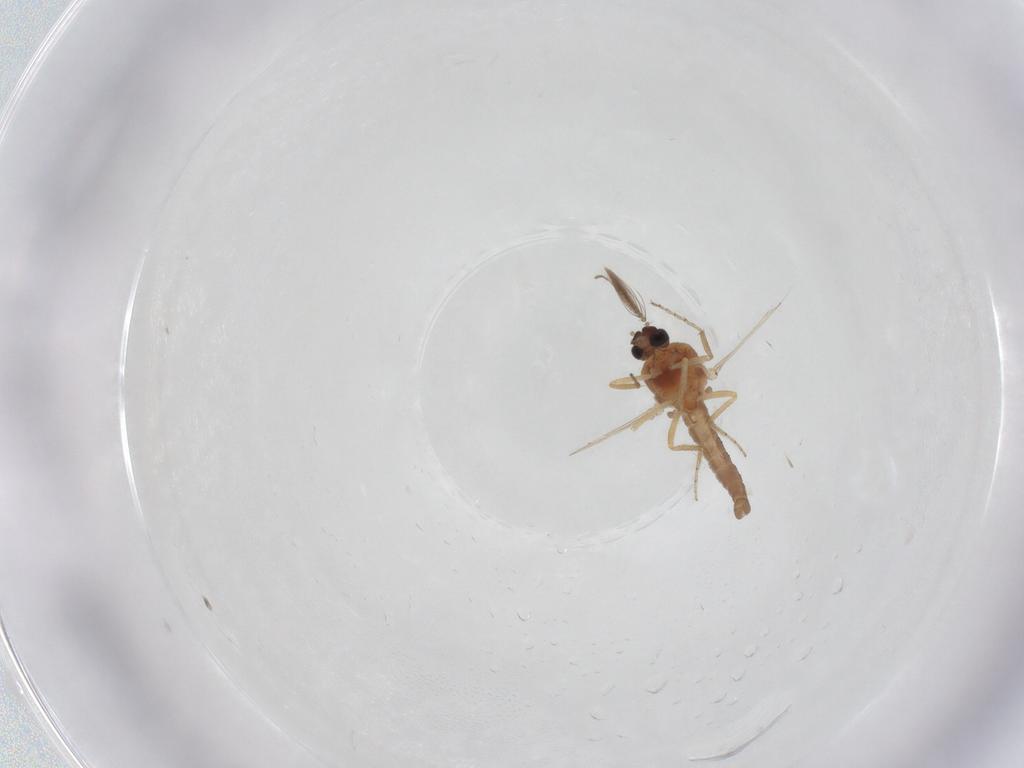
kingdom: Animalia
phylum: Arthropoda
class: Insecta
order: Diptera
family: Ceratopogonidae
